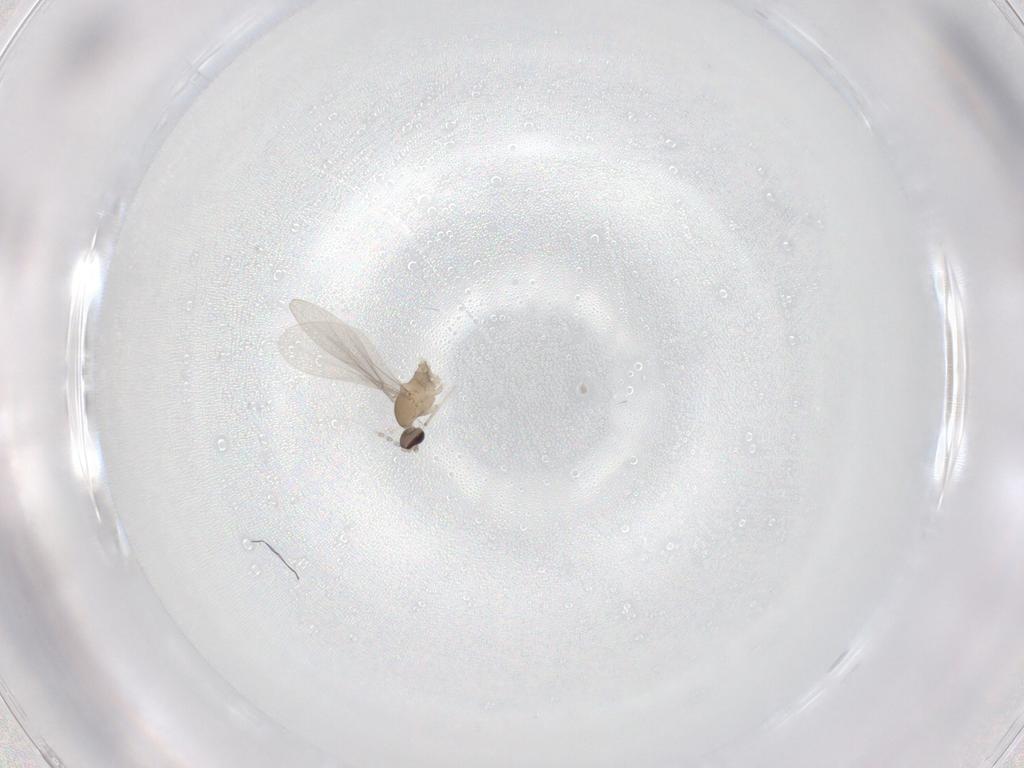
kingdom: Animalia
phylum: Arthropoda
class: Insecta
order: Diptera
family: Cecidomyiidae
